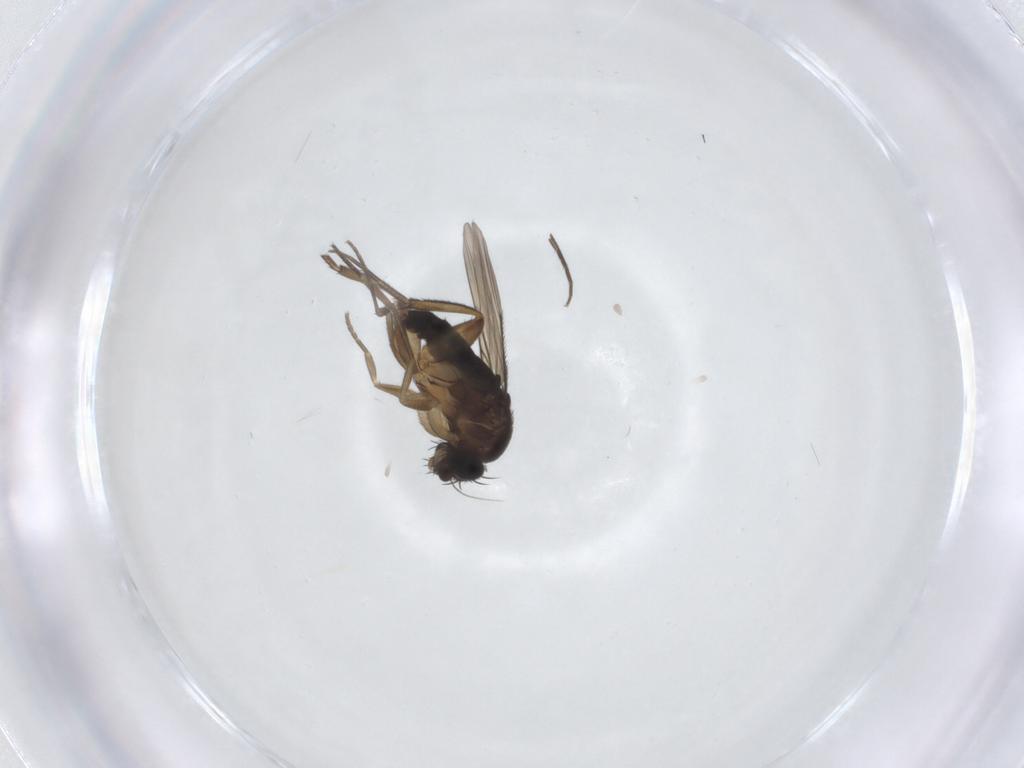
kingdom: Animalia
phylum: Arthropoda
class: Insecta
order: Diptera
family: Phoridae
